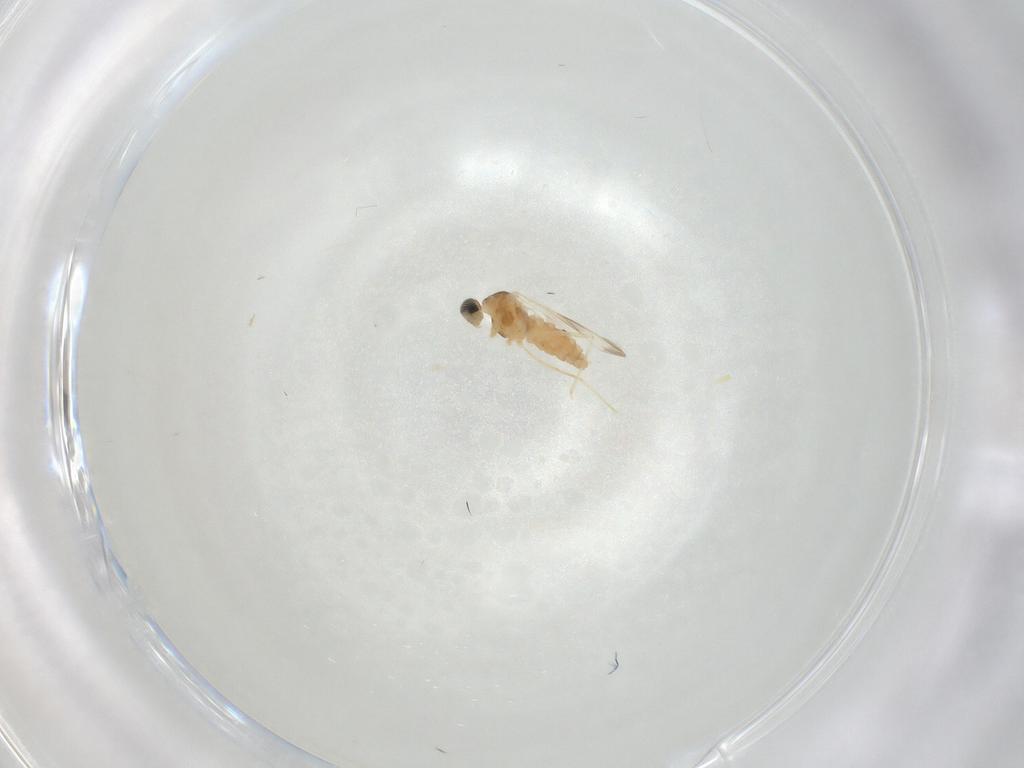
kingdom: Animalia
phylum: Arthropoda
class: Insecta
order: Diptera
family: Cecidomyiidae
